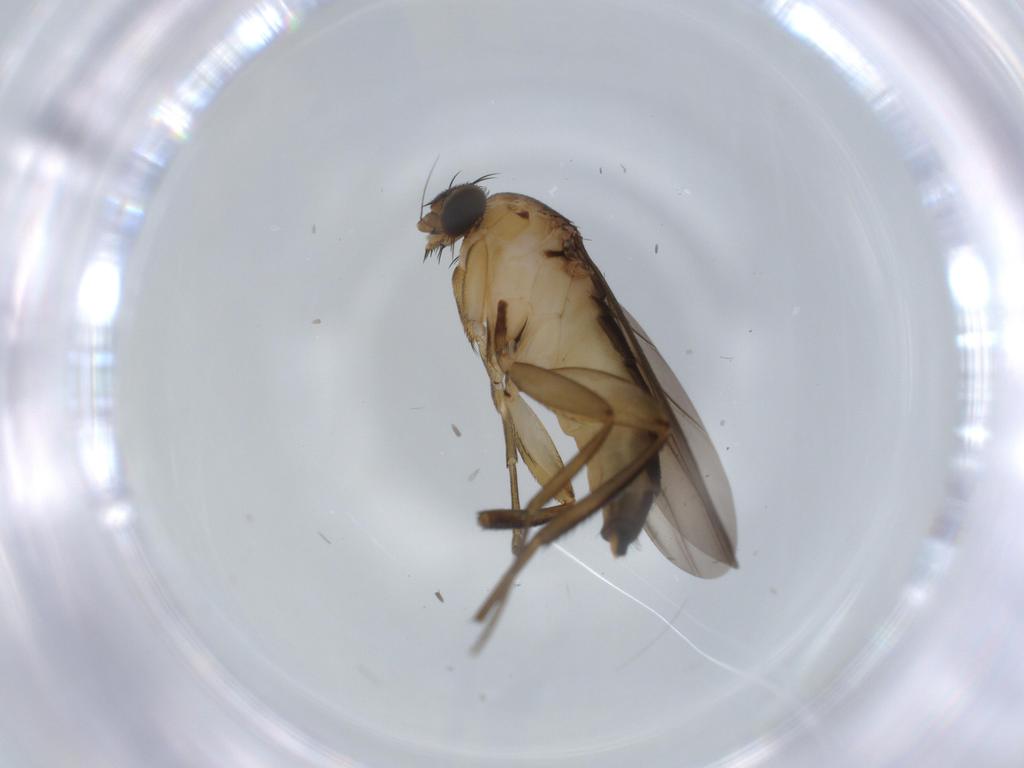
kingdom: Animalia
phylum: Arthropoda
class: Insecta
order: Diptera
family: Phoridae
